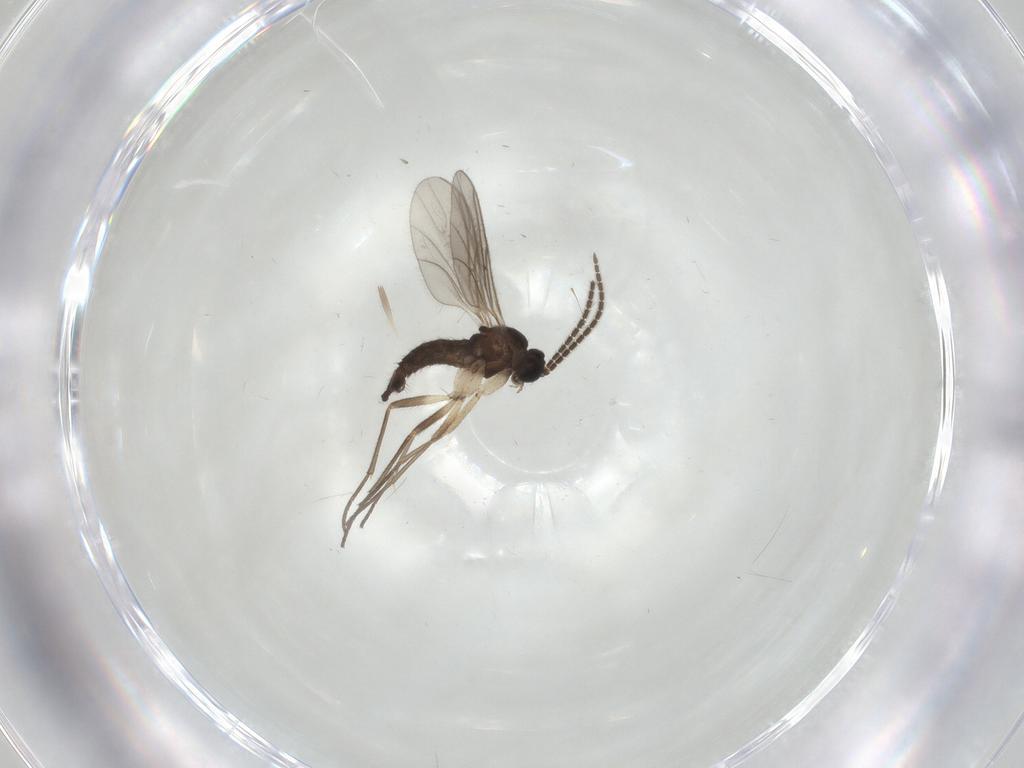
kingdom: Animalia
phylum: Arthropoda
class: Insecta
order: Diptera
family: Sciaridae
